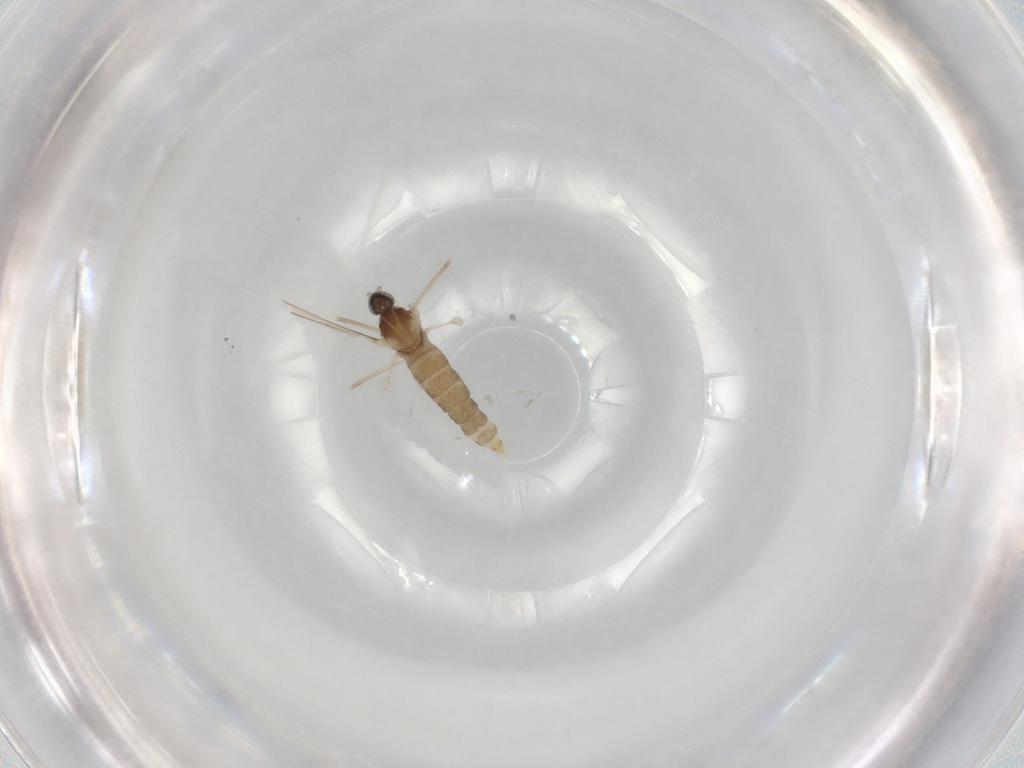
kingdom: Animalia
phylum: Arthropoda
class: Insecta
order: Diptera
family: Cecidomyiidae
